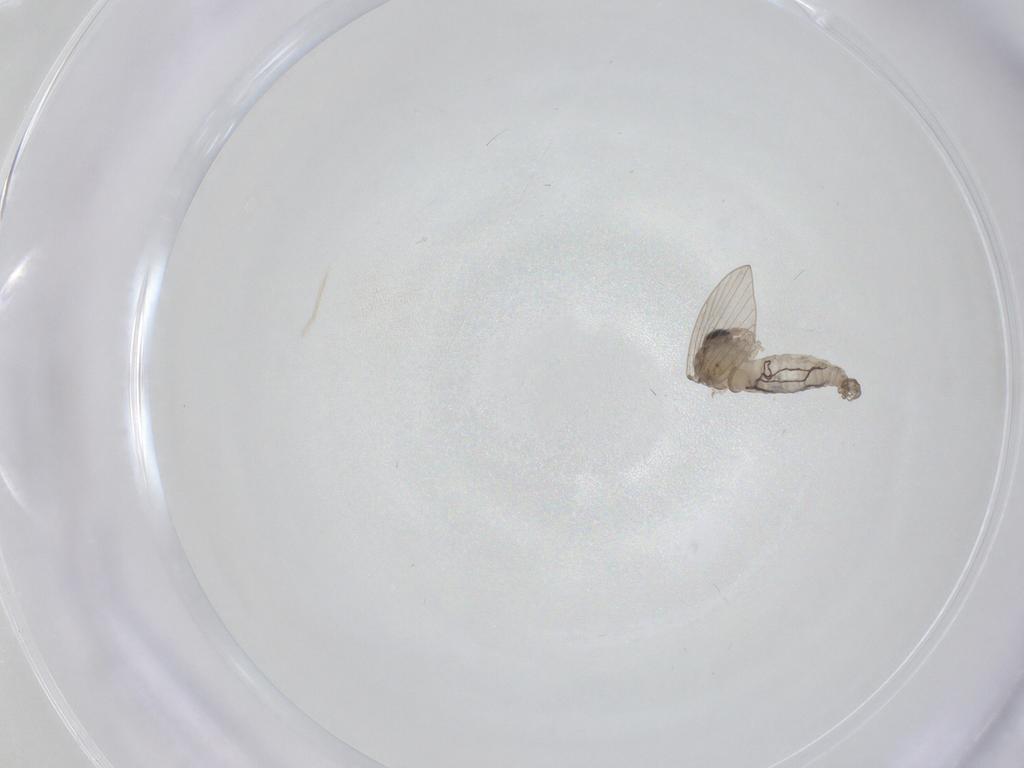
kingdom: Animalia
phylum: Arthropoda
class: Insecta
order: Diptera
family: Psychodidae
